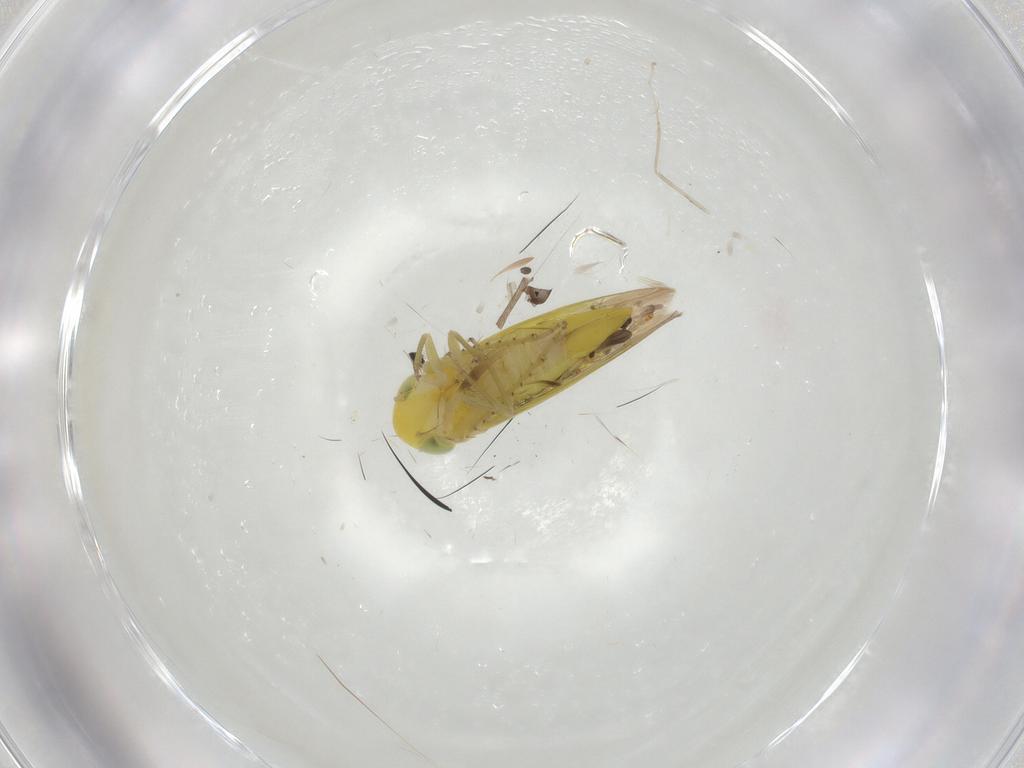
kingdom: Animalia
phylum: Arthropoda
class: Insecta
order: Hemiptera
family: Cicadellidae
